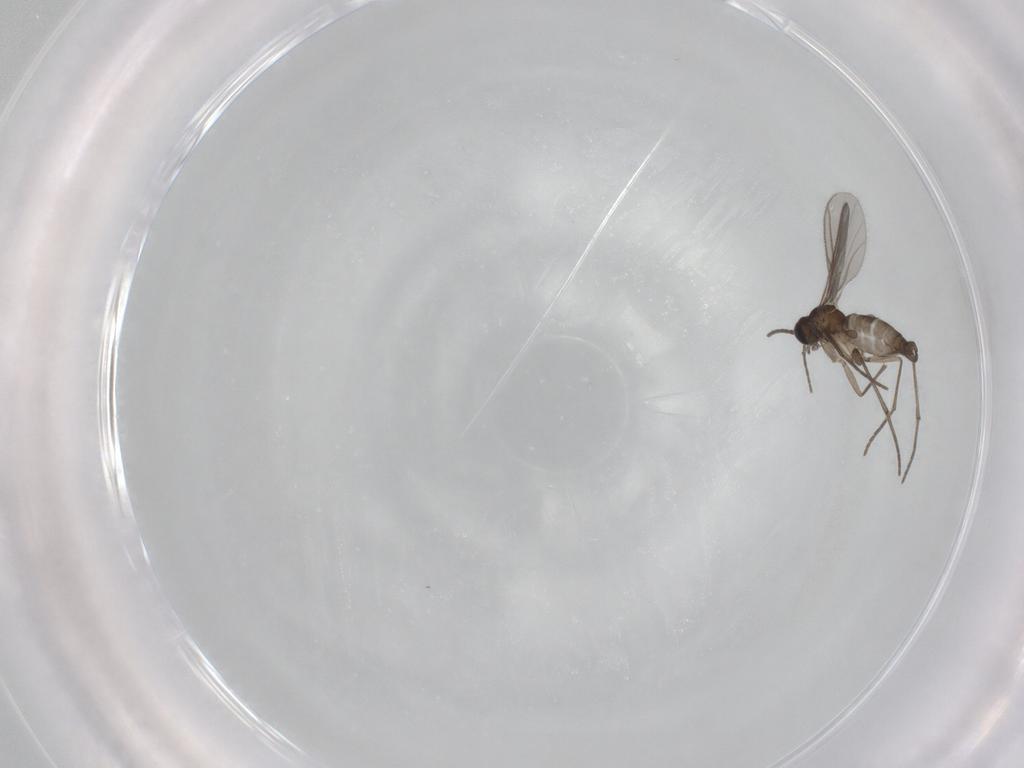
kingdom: Animalia
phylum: Arthropoda
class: Insecta
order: Diptera
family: Sciaridae
